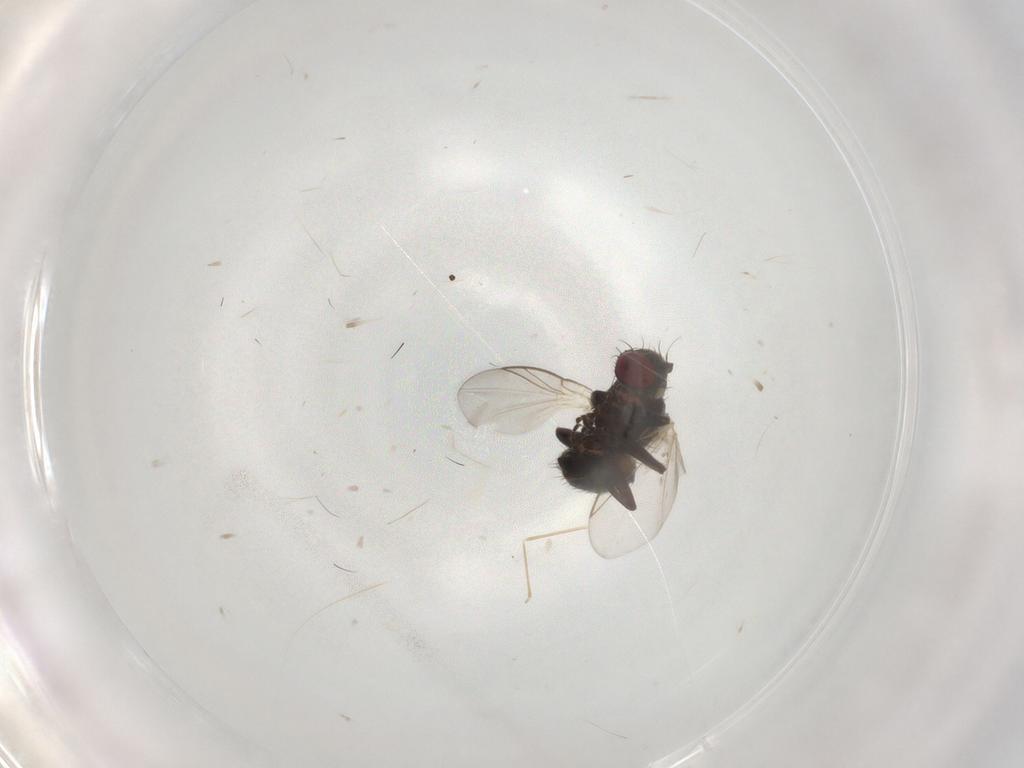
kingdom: Animalia
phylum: Arthropoda
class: Insecta
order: Diptera
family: Agromyzidae
